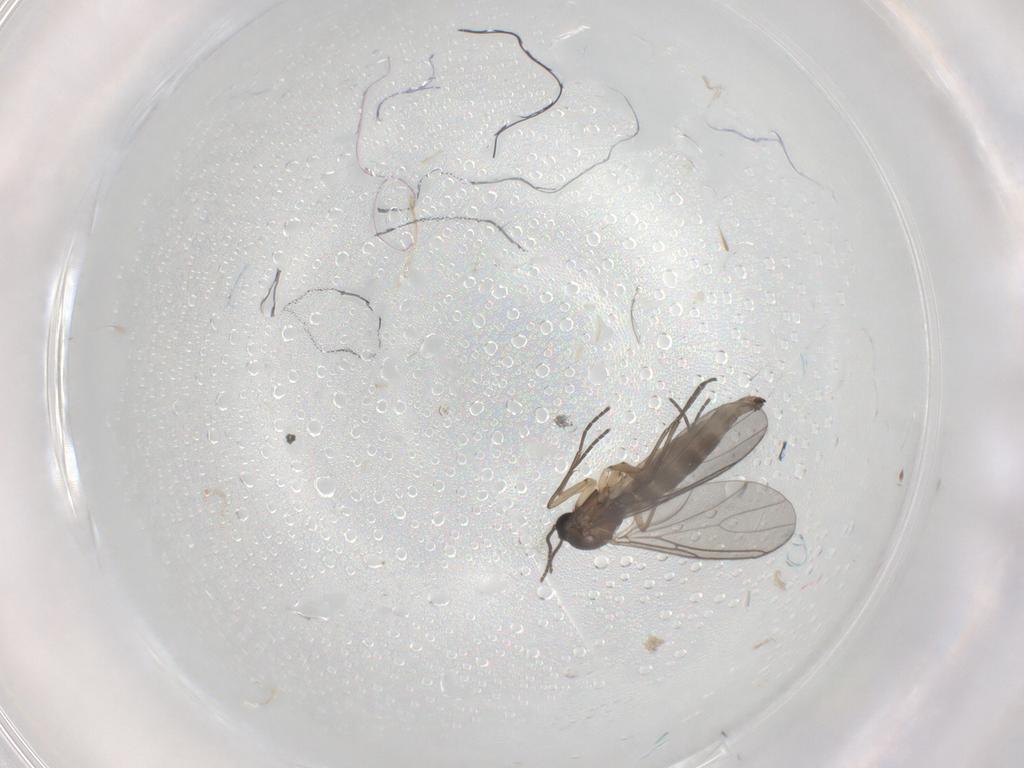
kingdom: Animalia
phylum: Arthropoda
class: Insecta
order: Diptera
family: Sciaridae
